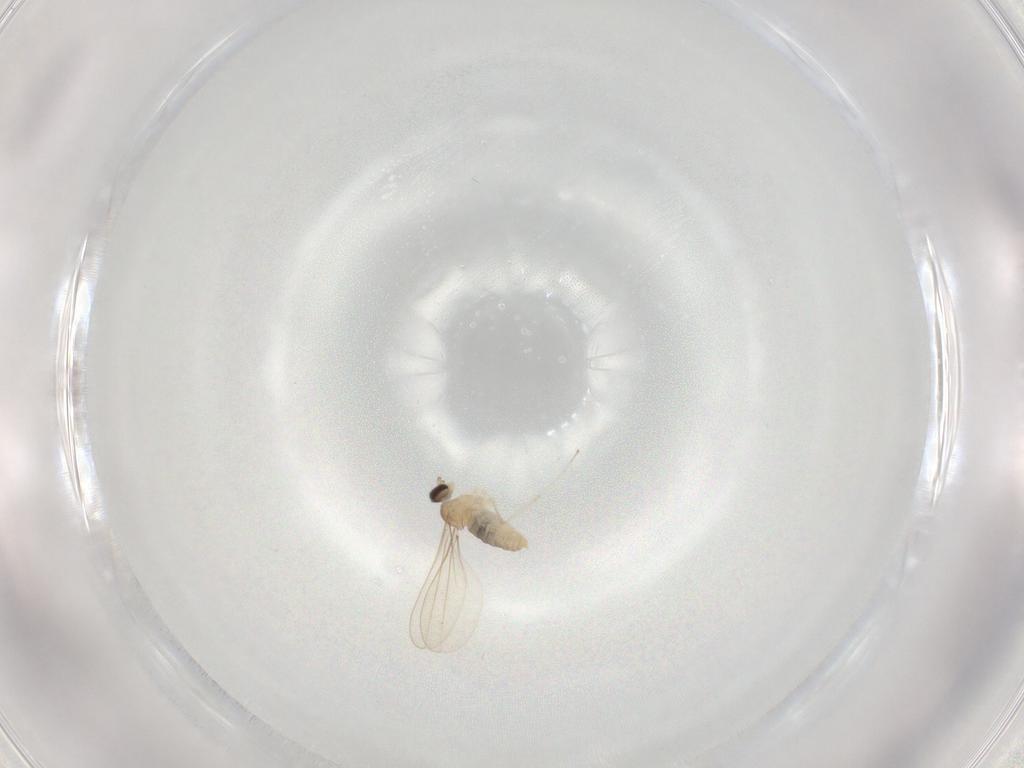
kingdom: Animalia
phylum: Arthropoda
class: Insecta
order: Diptera
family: Cecidomyiidae
